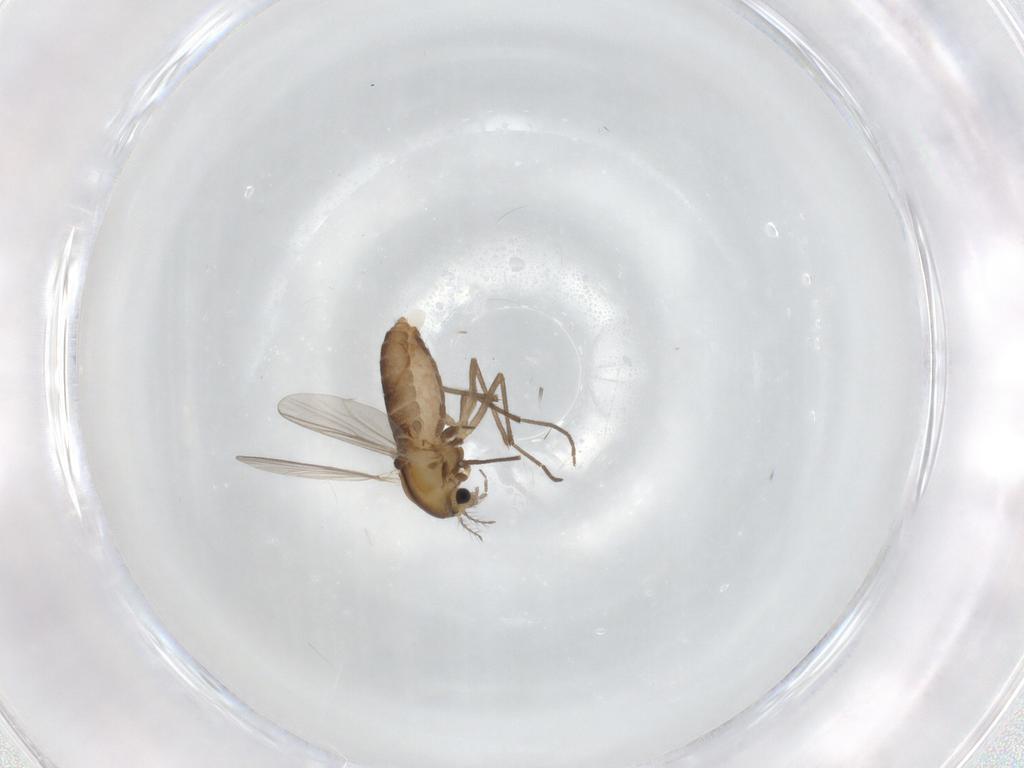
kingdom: Animalia
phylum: Arthropoda
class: Insecta
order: Diptera
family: Chironomidae
